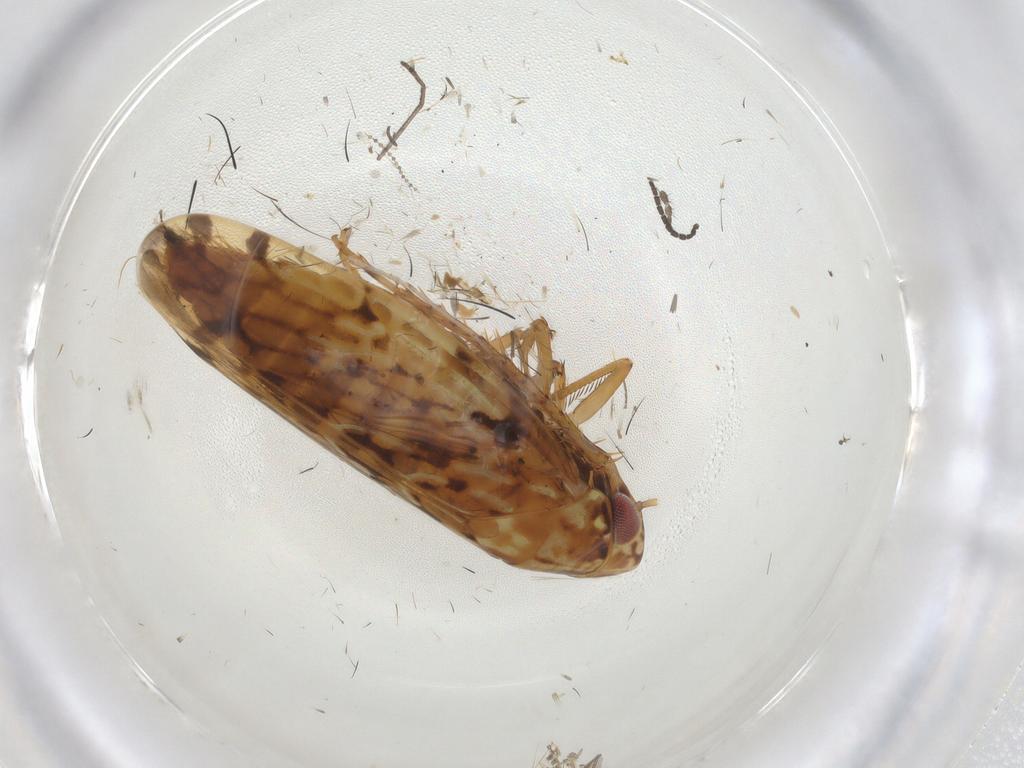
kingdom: Animalia
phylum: Arthropoda
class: Insecta
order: Hemiptera
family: Cicadellidae
